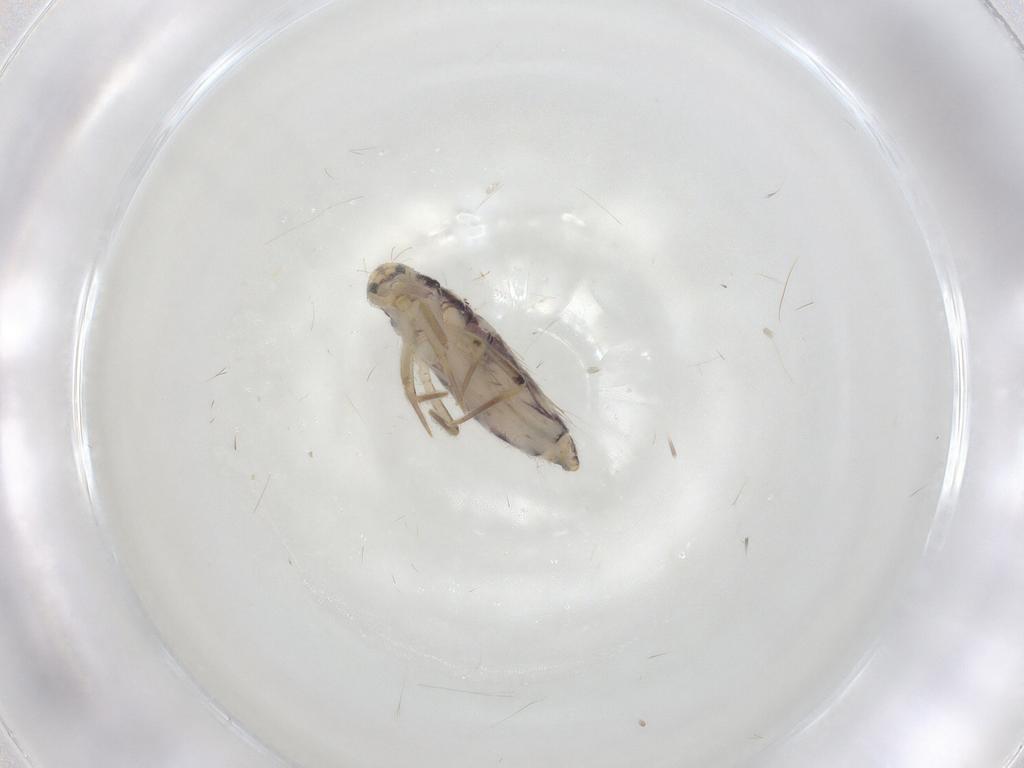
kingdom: Animalia
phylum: Arthropoda
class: Collembola
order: Entomobryomorpha
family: Entomobryidae
